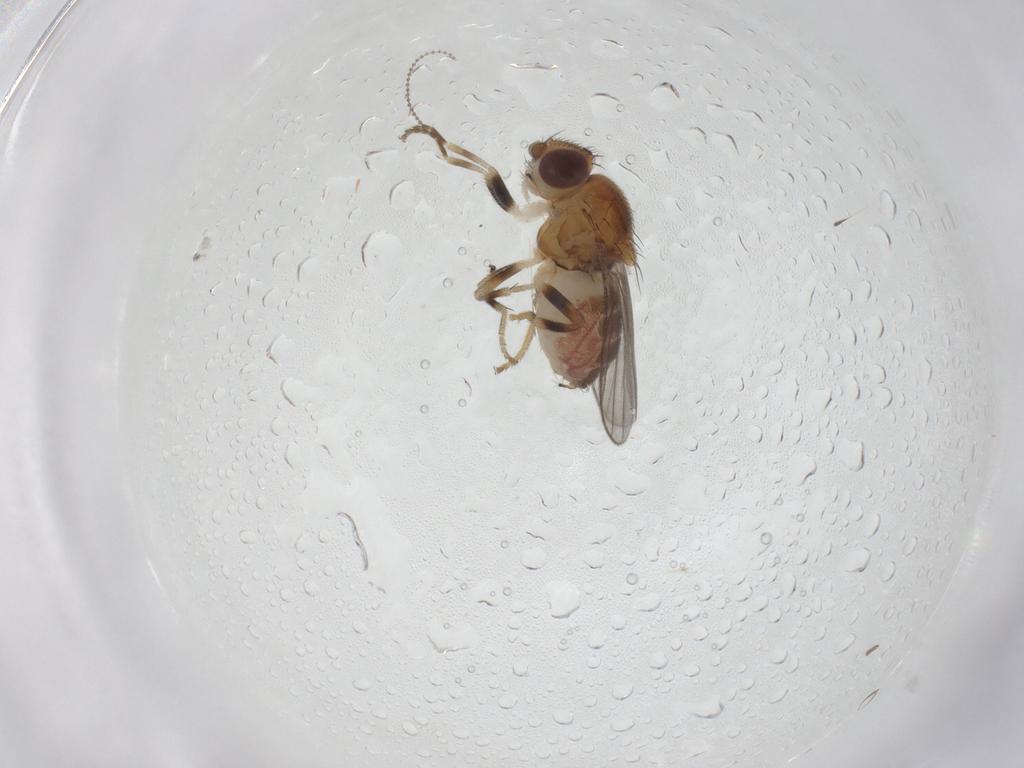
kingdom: Animalia
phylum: Arthropoda
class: Insecta
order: Diptera
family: Chloropidae
